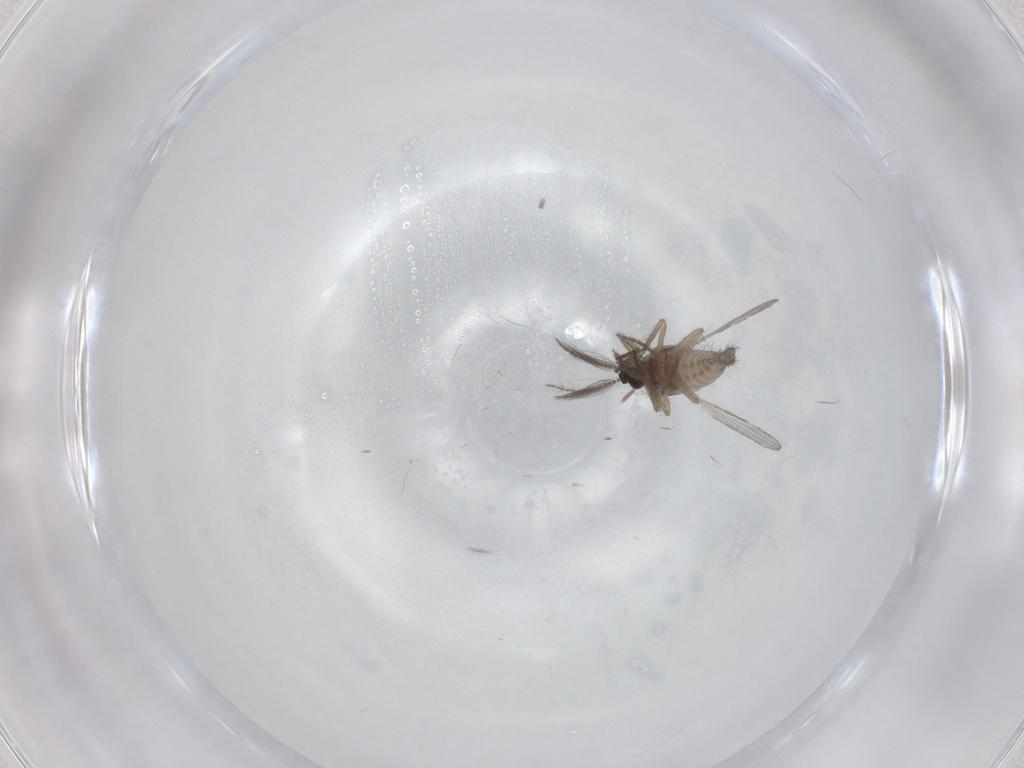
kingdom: Animalia
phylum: Arthropoda
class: Insecta
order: Diptera
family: Ceratopogonidae
